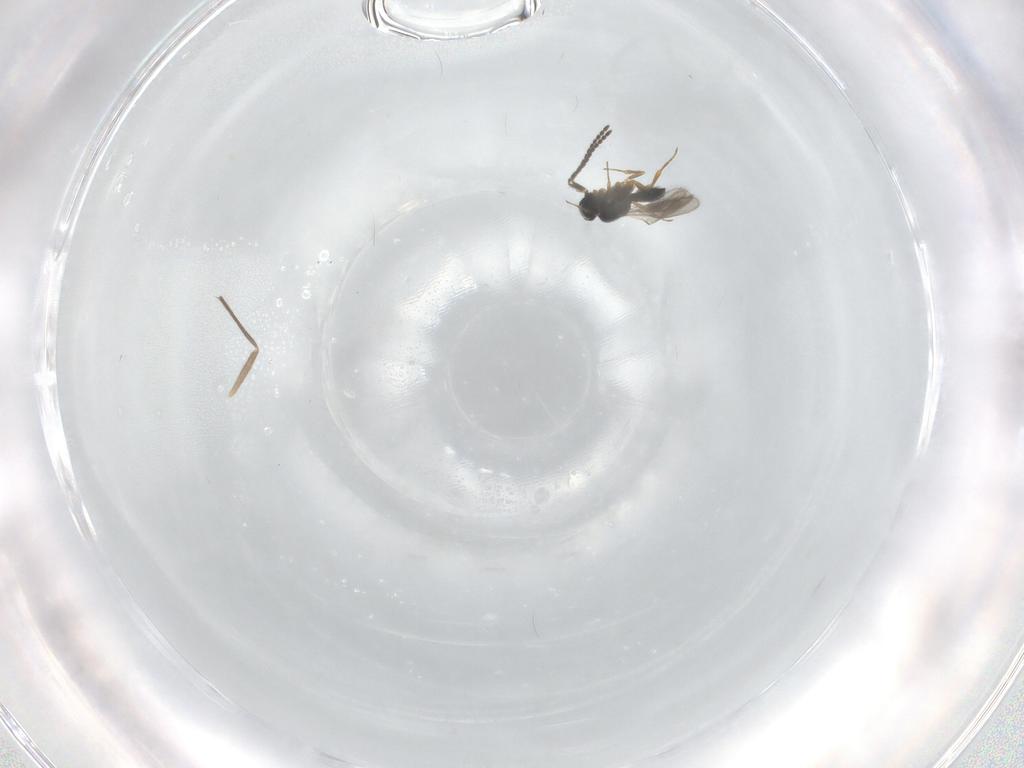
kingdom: Animalia
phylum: Arthropoda
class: Insecta
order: Hymenoptera
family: Scelionidae
